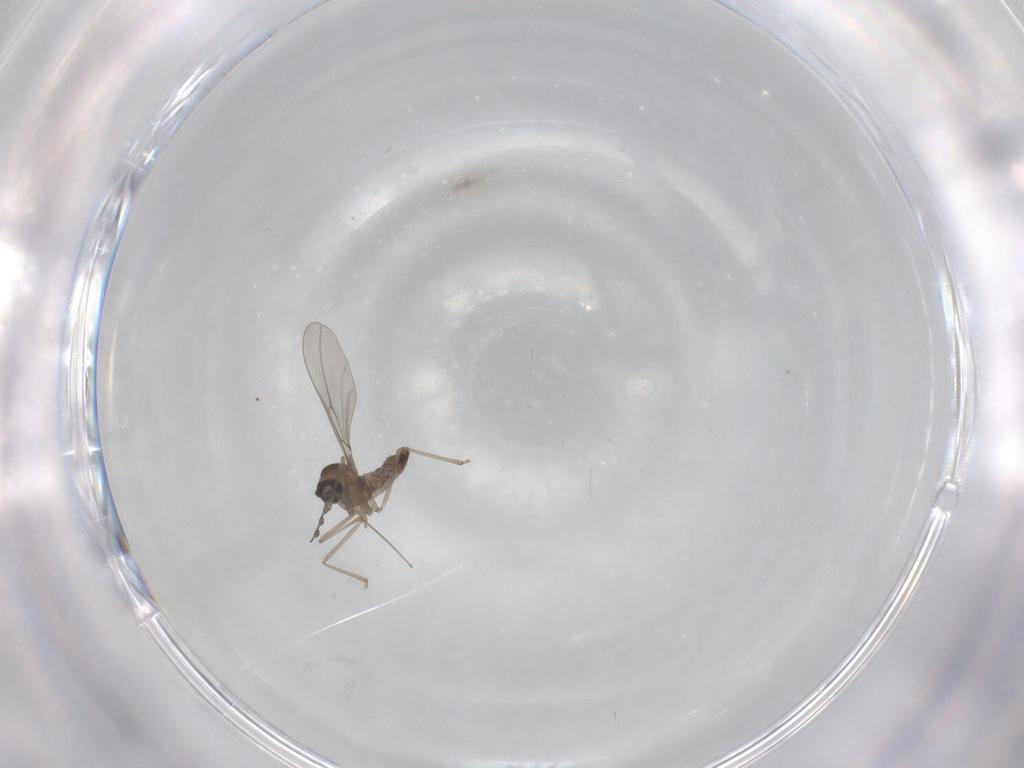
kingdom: Animalia
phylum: Arthropoda
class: Insecta
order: Diptera
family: Cecidomyiidae
